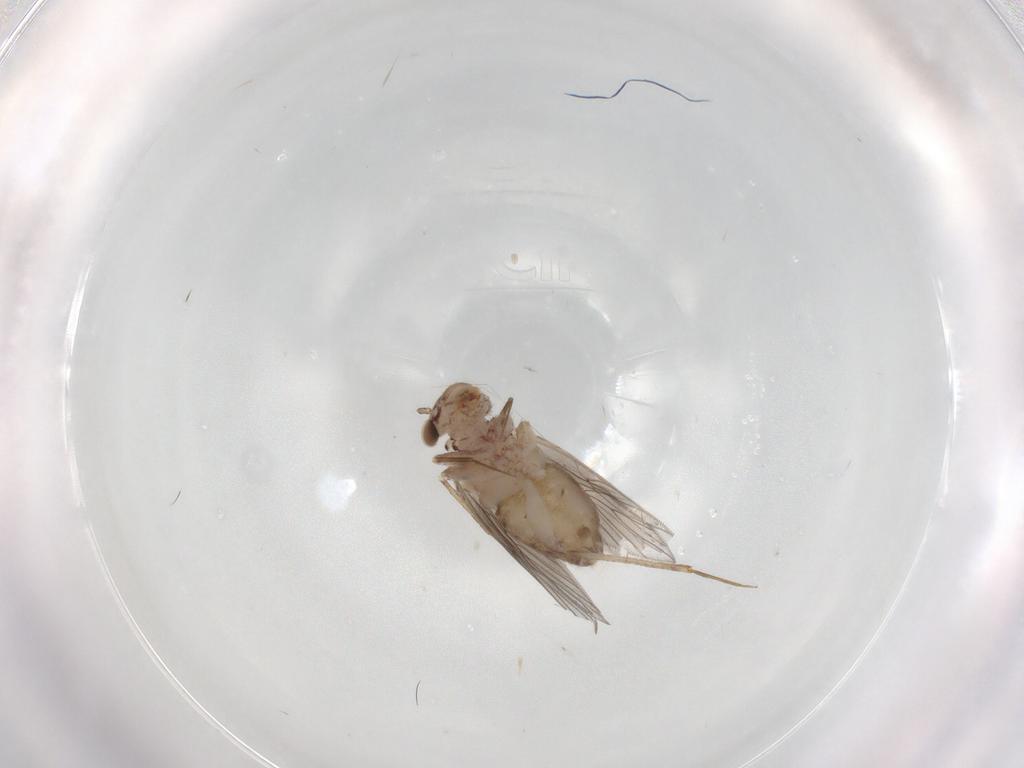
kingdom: Animalia
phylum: Arthropoda
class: Insecta
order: Psocodea
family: Lepidopsocidae
